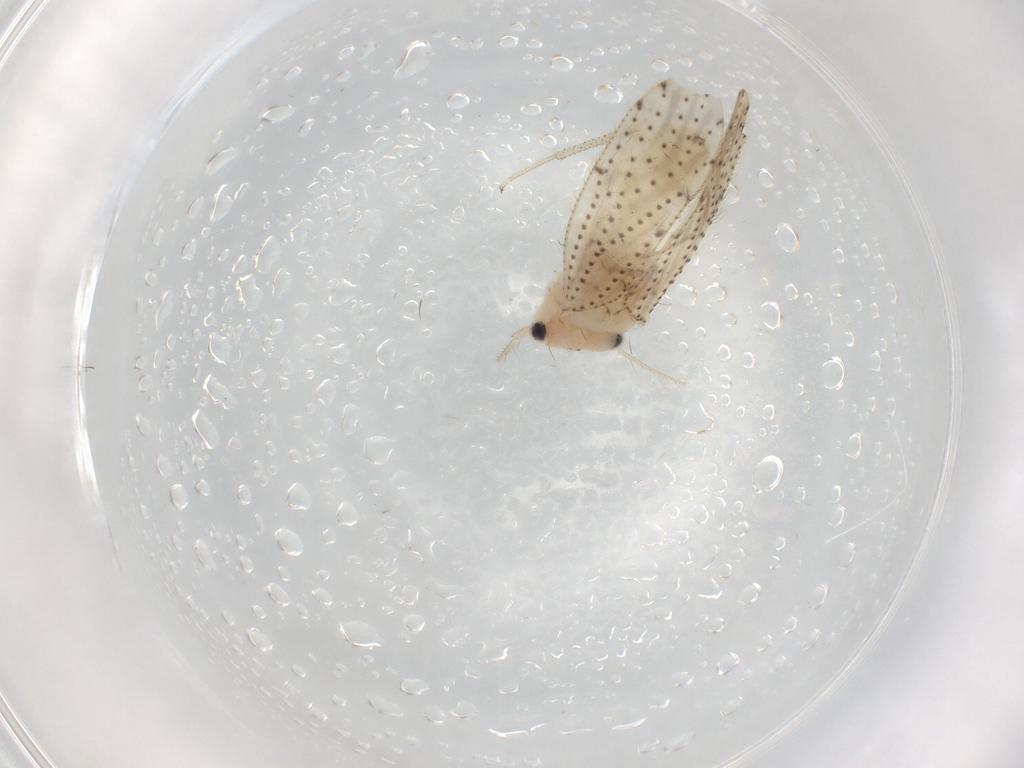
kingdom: Animalia
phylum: Arthropoda
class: Insecta
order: Psocodea
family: Myopsocidae
